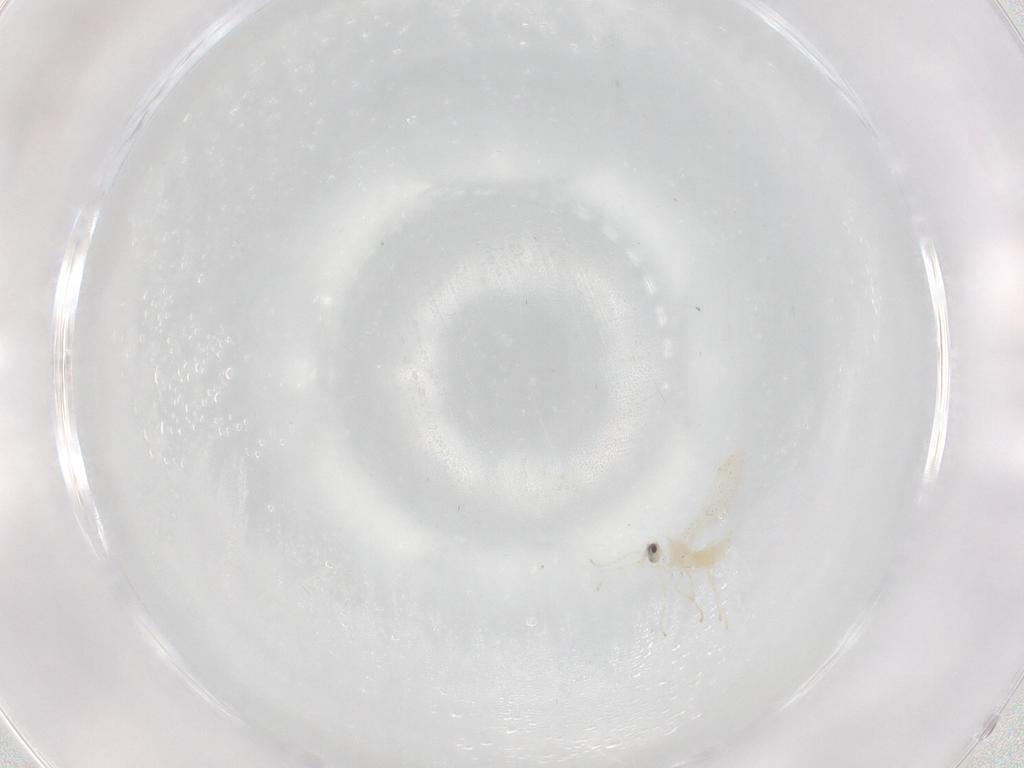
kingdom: Animalia
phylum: Arthropoda
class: Insecta
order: Diptera
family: Cecidomyiidae
